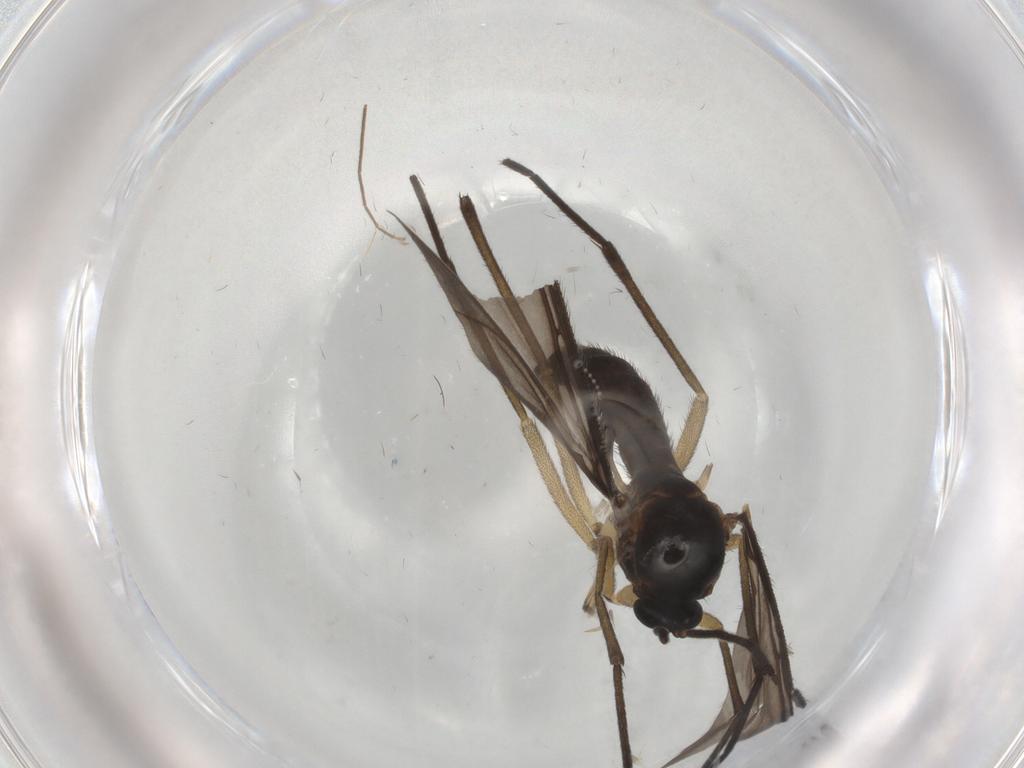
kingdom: Animalia
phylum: Arthropoda
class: Insecta
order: Diptera
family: Sciaridae
